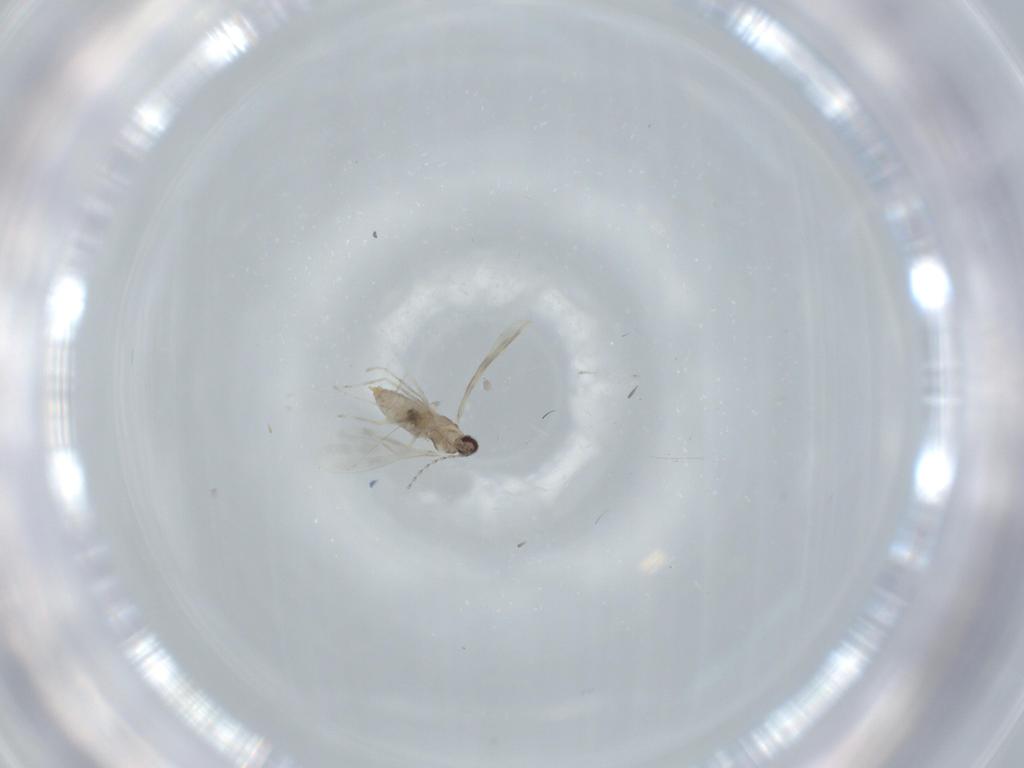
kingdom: Animalia
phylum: Arthropoda
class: Insecta
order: Diptera
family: Cecidomyiidae
